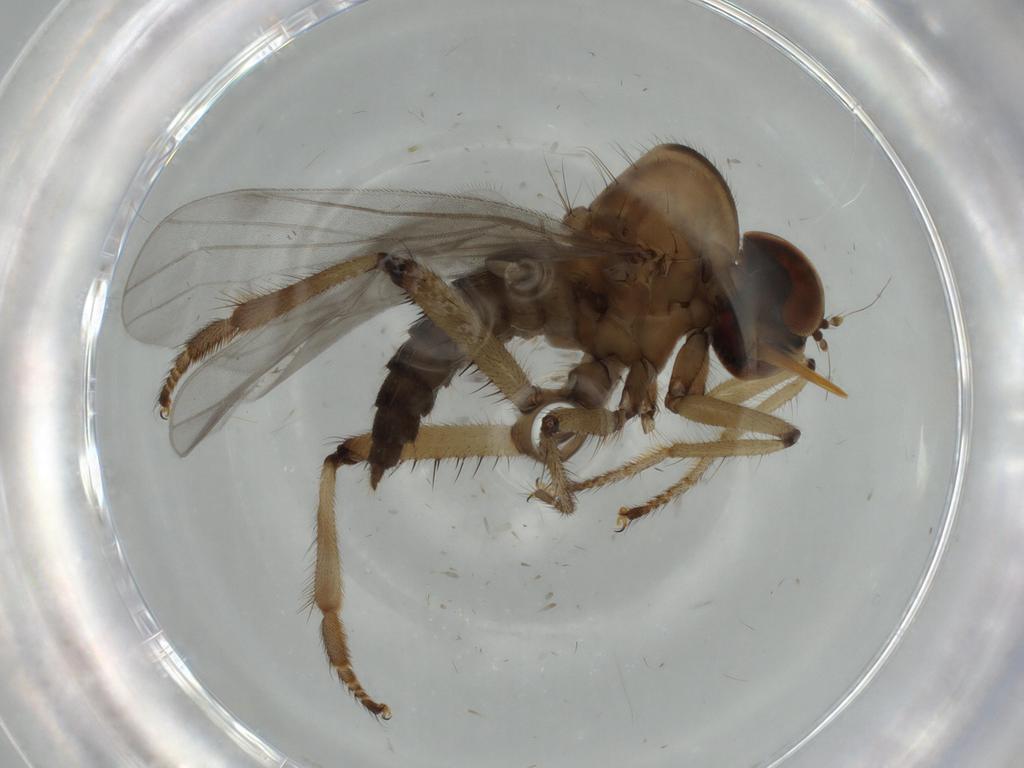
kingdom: Animalia
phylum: Arthropoda
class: Insecta
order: Diptera
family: Hybotidae
